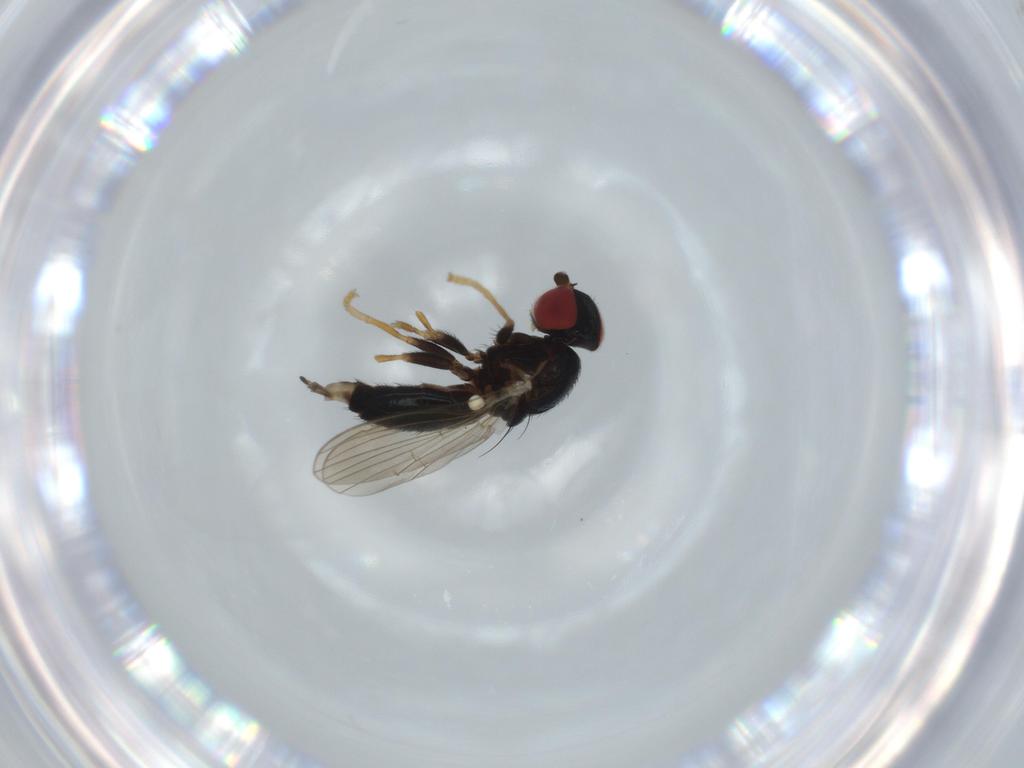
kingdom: Animalia
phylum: Arthropoda
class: Insecta
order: Diptera
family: Chamaemyiidae
